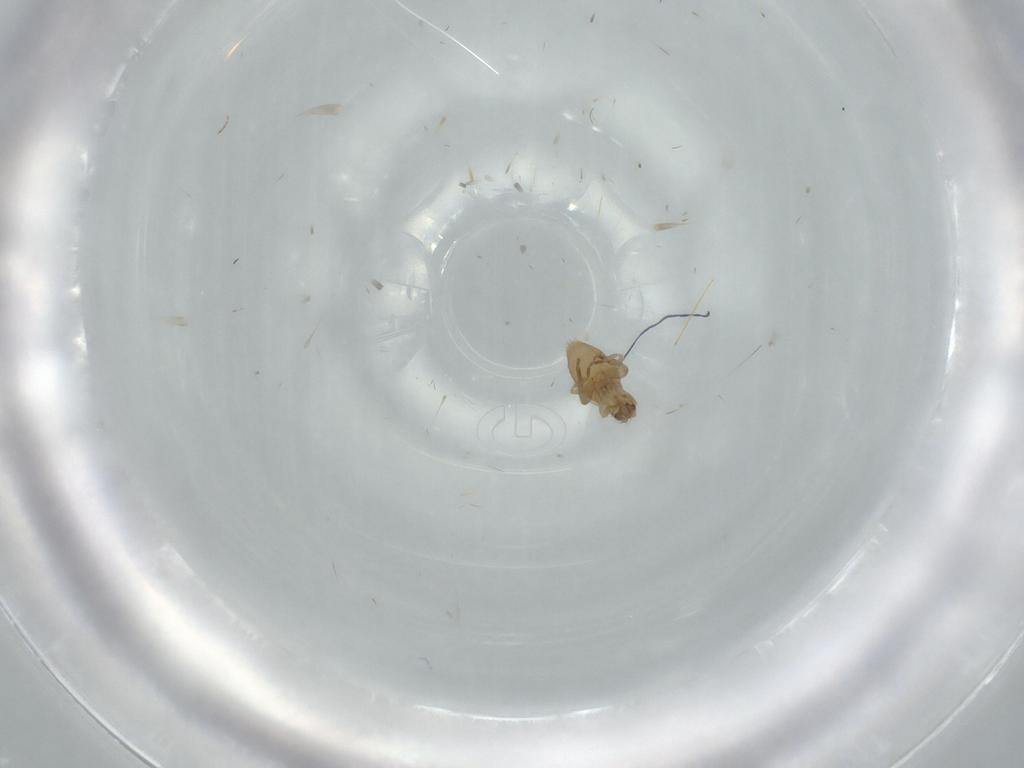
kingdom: Animalia
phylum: Arthropoda
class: Insecta
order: Diptera
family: Phoridae
